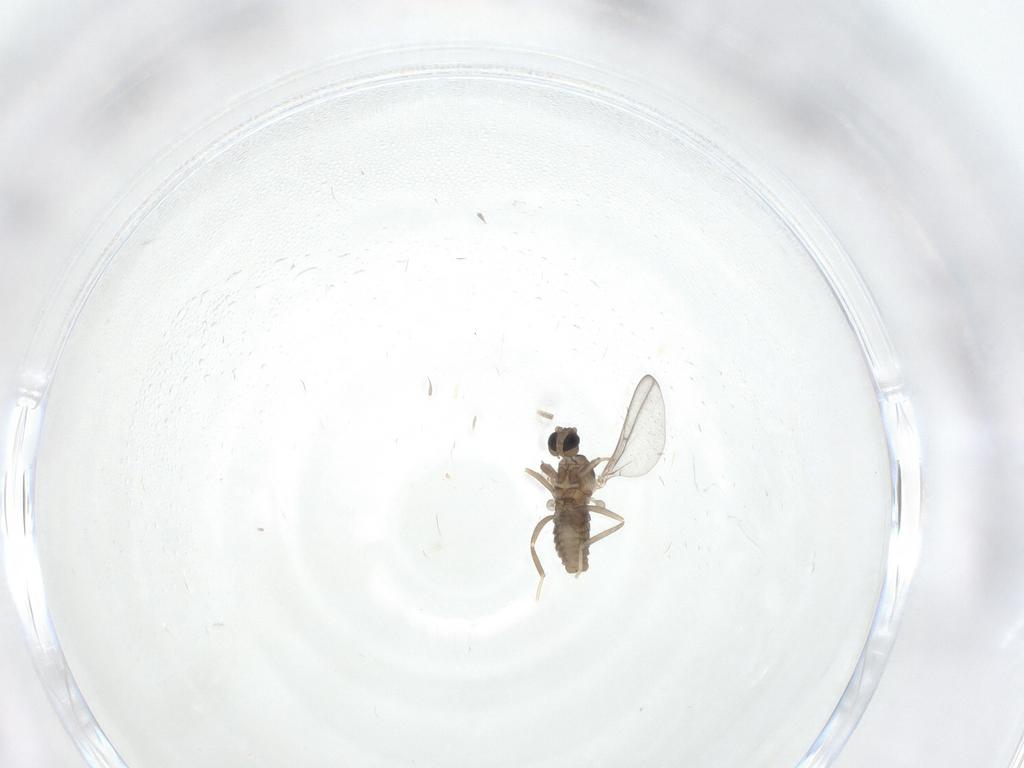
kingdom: Animalia
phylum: Arthropoda
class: Insecta
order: Diptera
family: Cecidomyiidae
